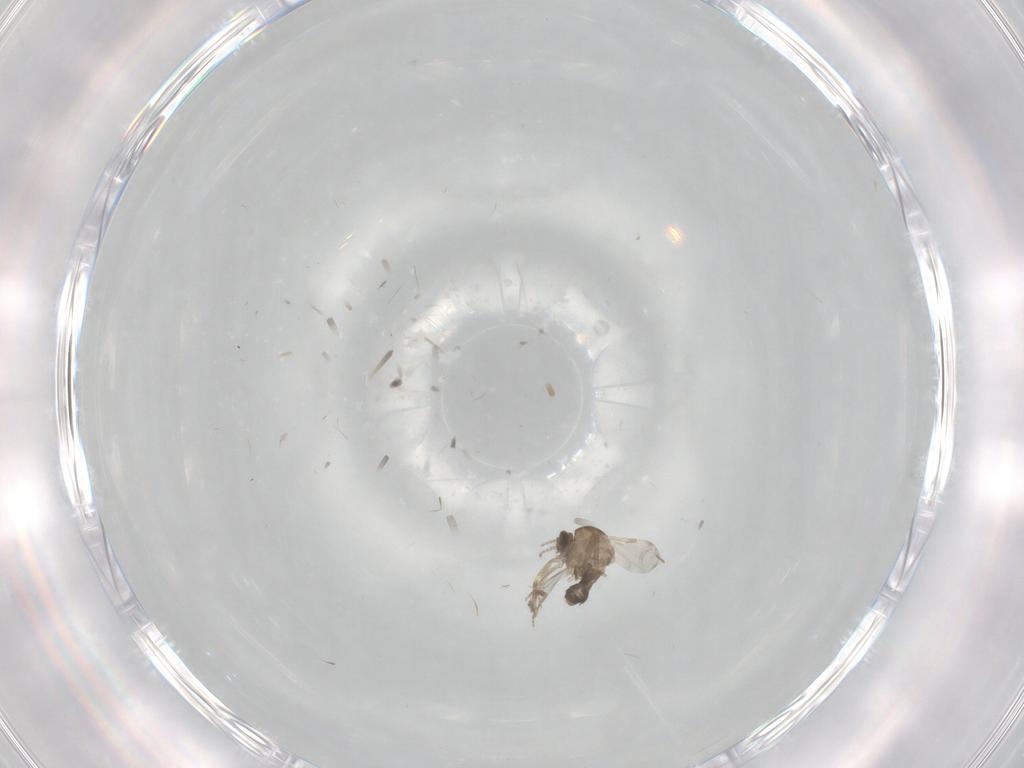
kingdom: Animalia
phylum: Arthropoda
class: Insecta
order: Diptera
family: Ceratopogonidae
